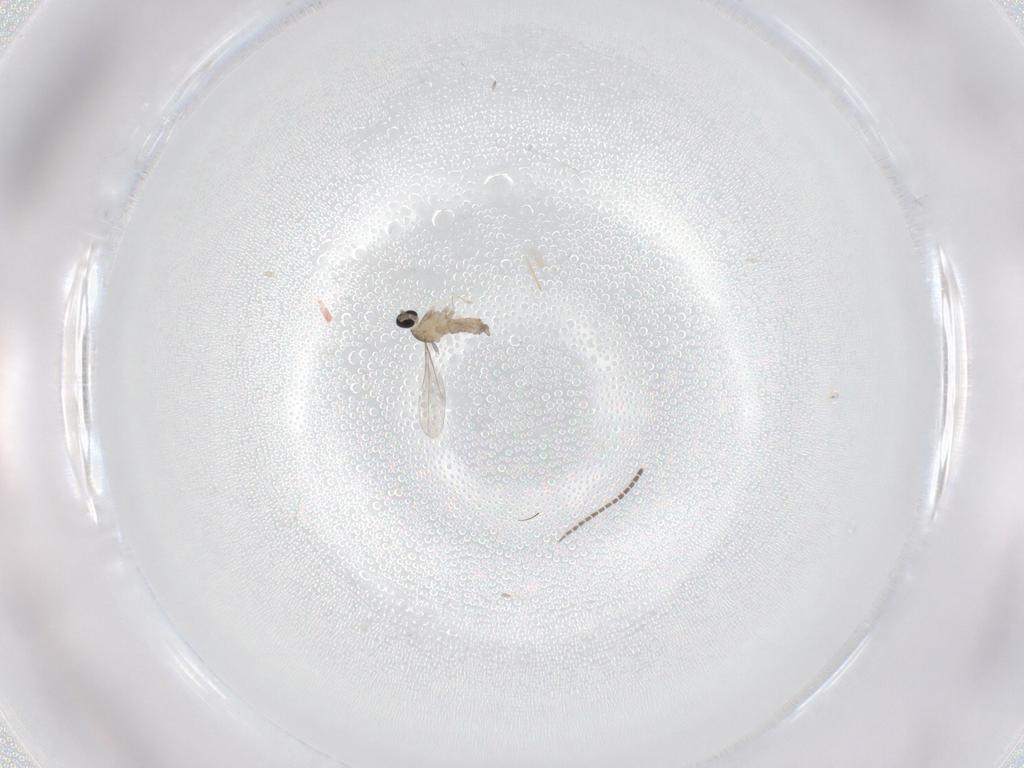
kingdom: Animalia
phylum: Arthropoda
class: Insecta
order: Diptera
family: Cecidomyiidae
